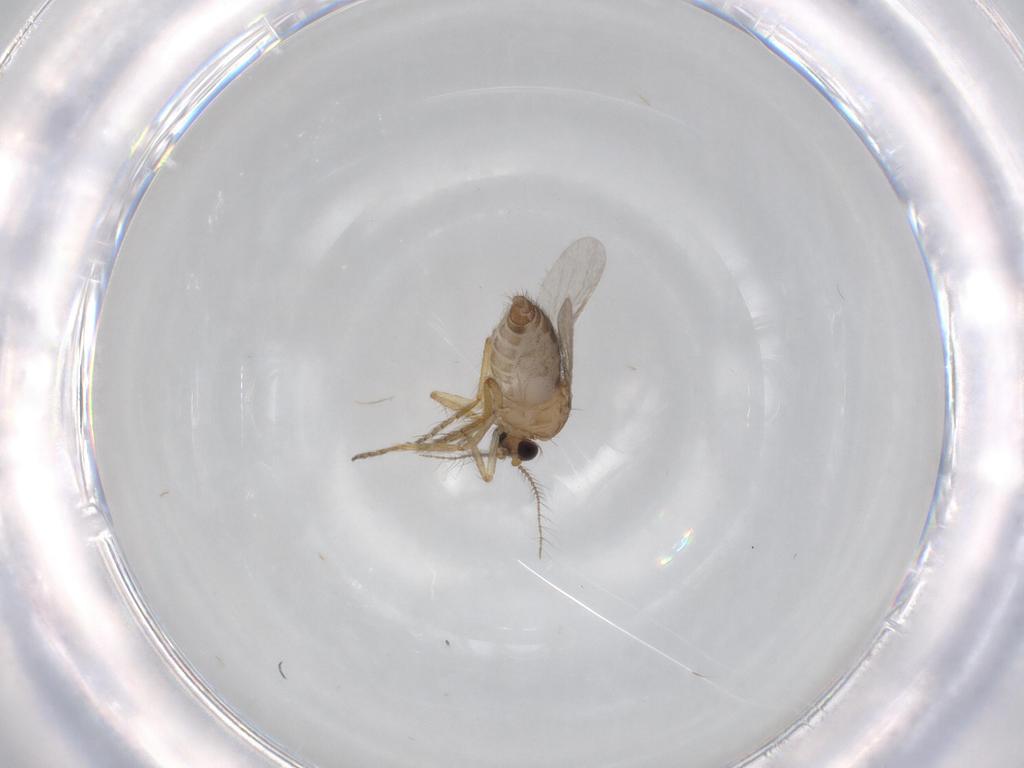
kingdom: Animalia
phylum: Arthropoda
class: Insecta
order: Diptera
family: Ceratopogonidae
